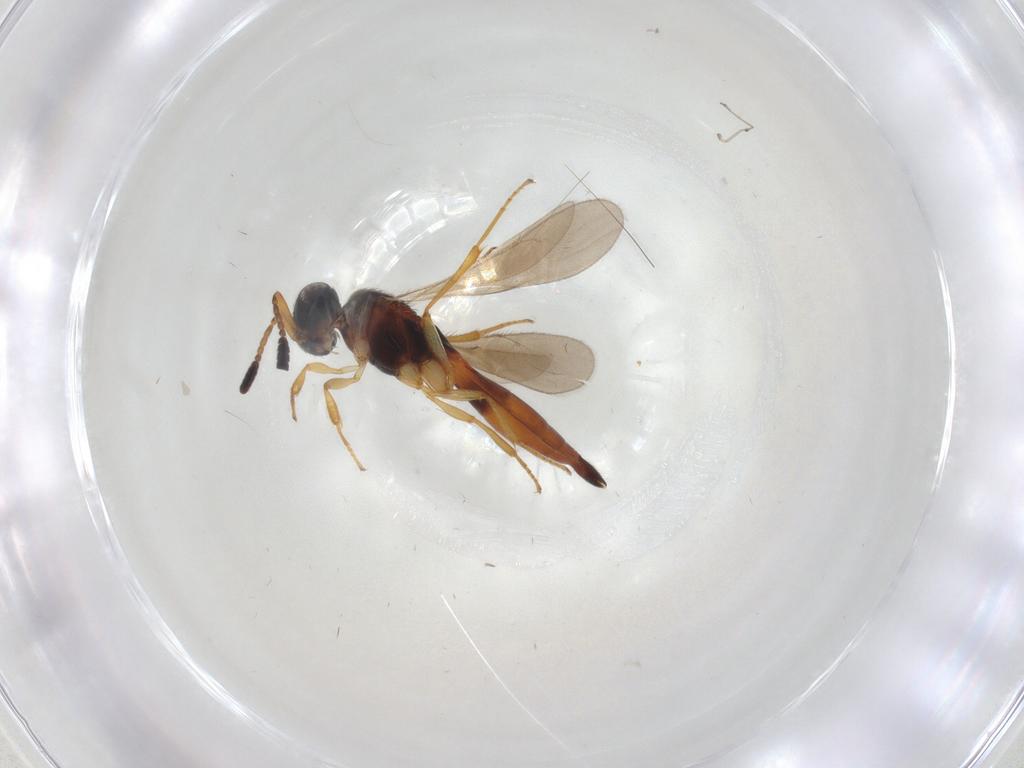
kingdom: Animalia
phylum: Arthropoda
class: Insecta
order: Hymenoptera
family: Scelionidae
